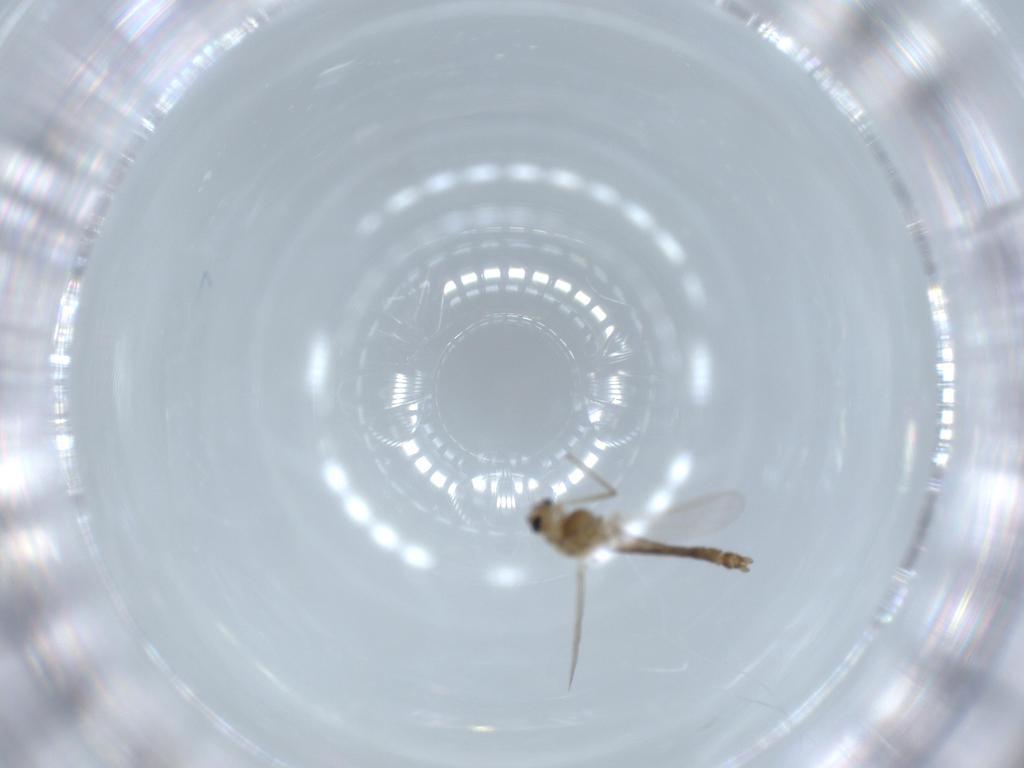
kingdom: Animalia
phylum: Arthropoda
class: Insecta
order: Diptera
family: Chironomidae
